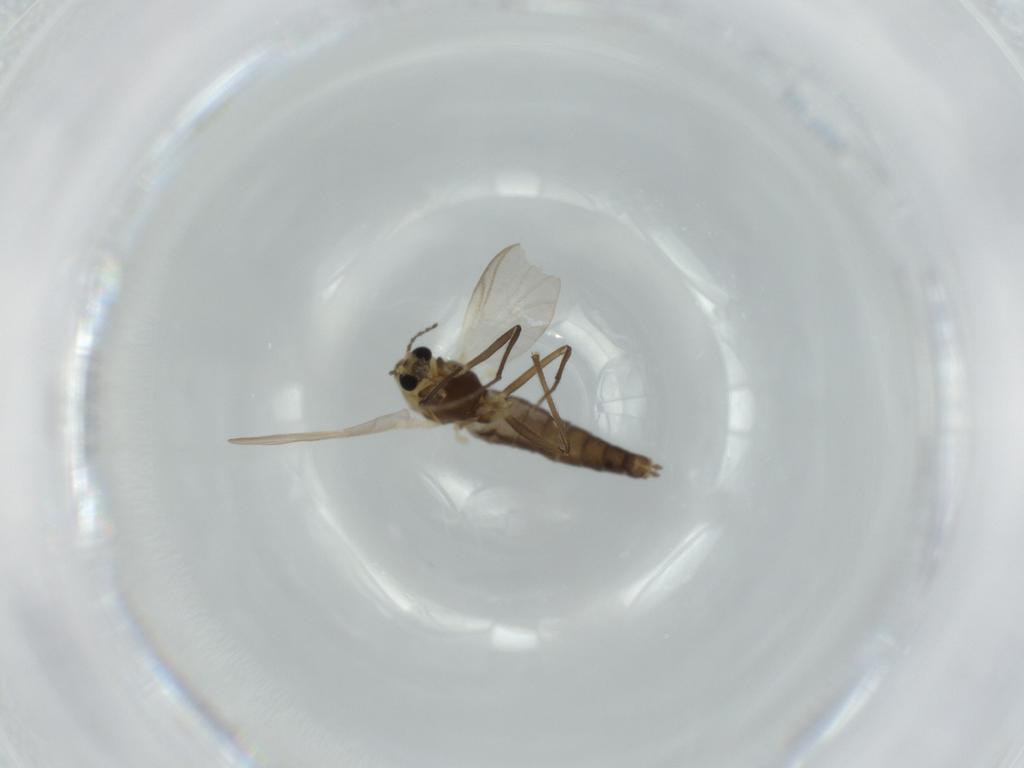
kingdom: Animalia
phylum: Arthropoda
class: Insecta
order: Diptera
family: Chironomidae
